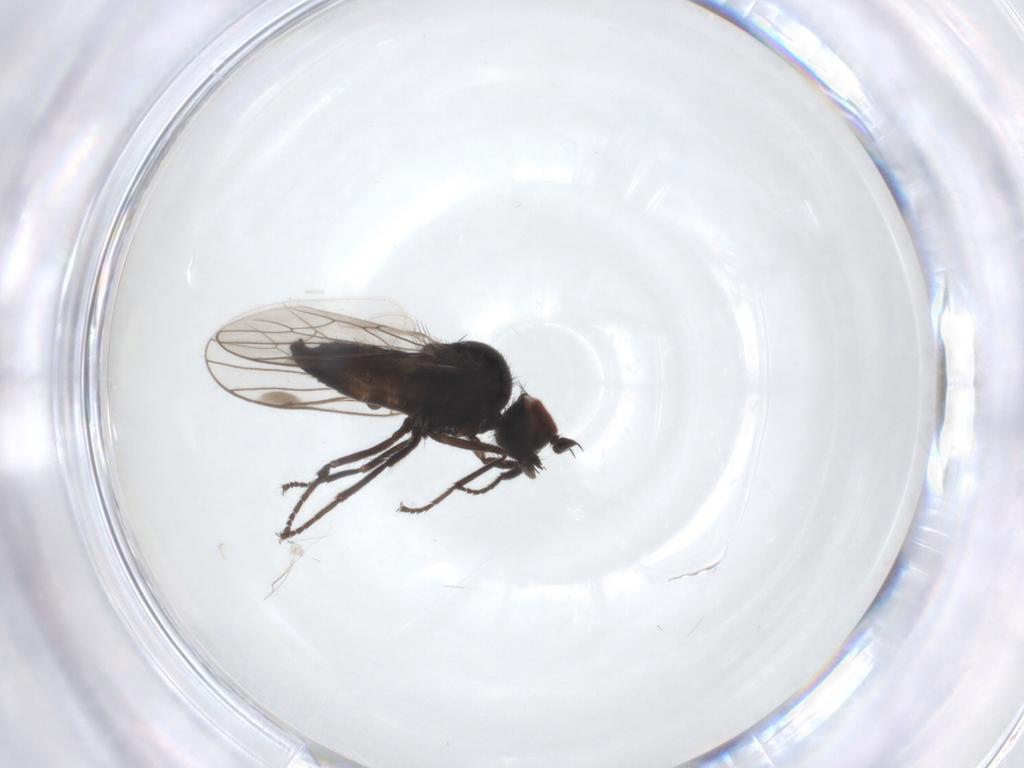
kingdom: Animalia
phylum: Arthropoda
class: Insecta
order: Diptera
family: Hybotidae
